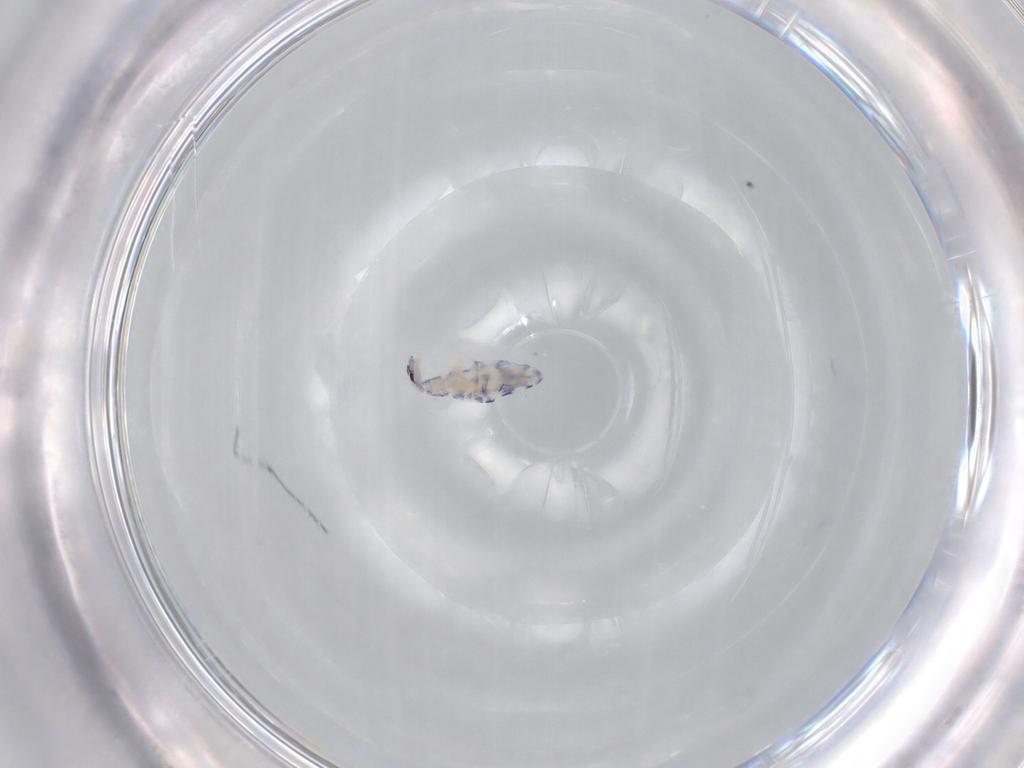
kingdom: Animalia
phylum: Arthropoda
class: Collembola
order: Entomobryomorpha
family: Entomobryidae
